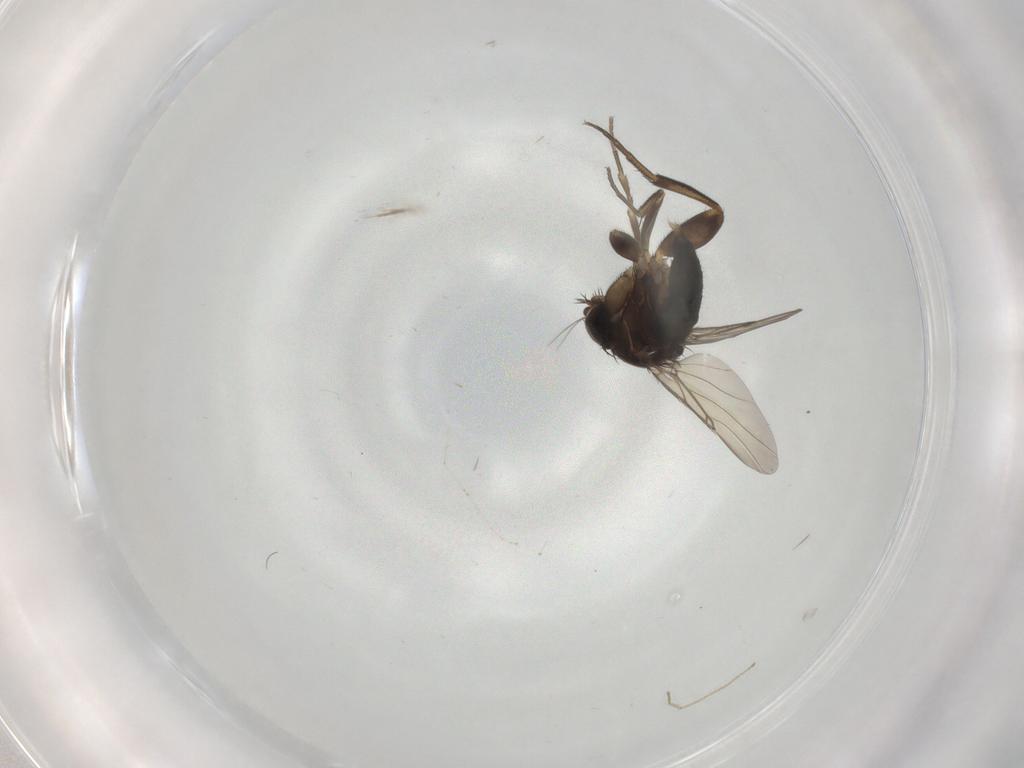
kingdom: Animalia
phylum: Arthropoda
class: Insecta
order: Diptera
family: Phoridae
